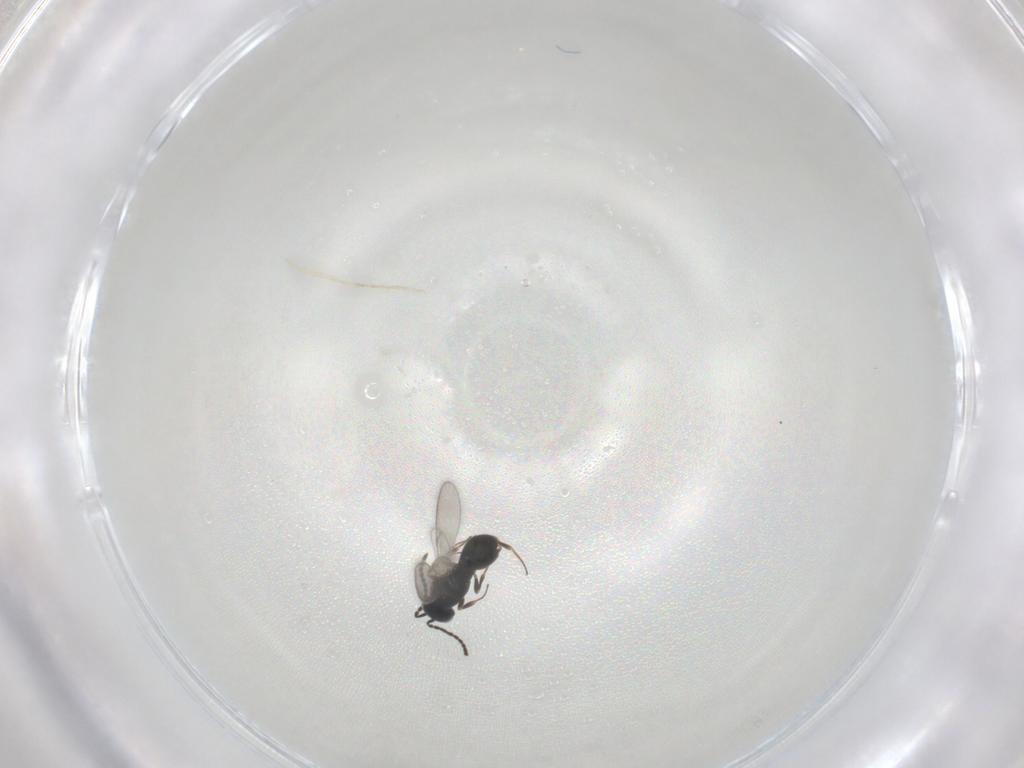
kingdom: Animalia
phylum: Arthropoda
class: Insecta
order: Hymenoptera
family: Scelionidae
